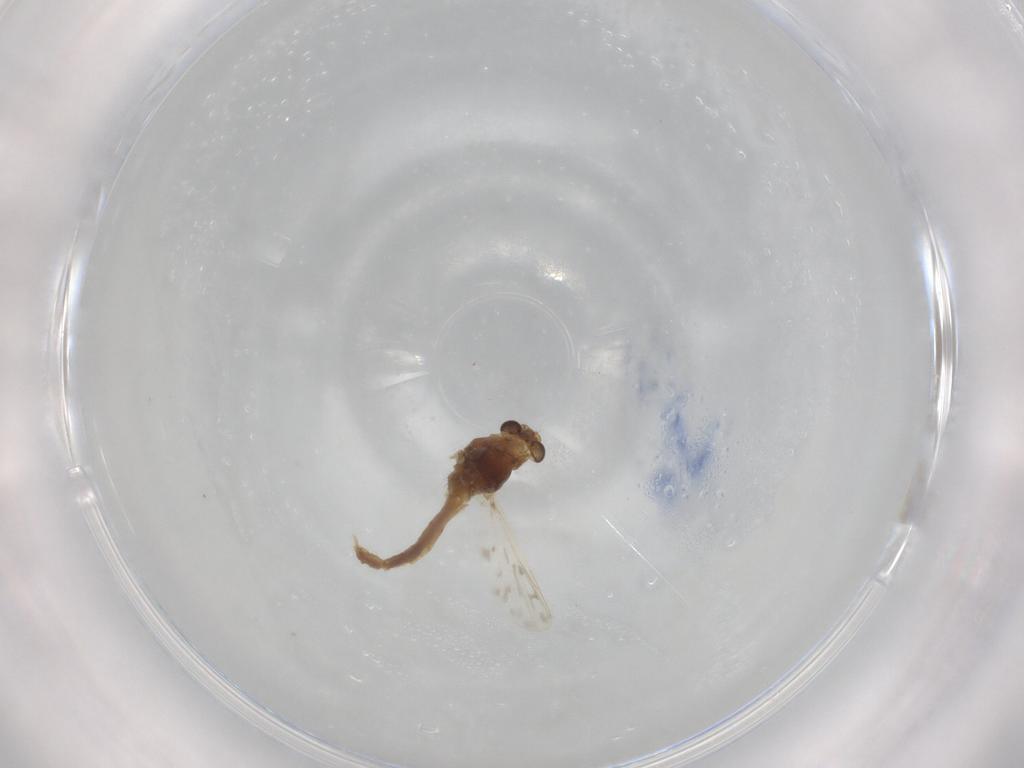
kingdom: Animalia
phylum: Arthropoda
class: Insecta
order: Diptera
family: Chironomidae
